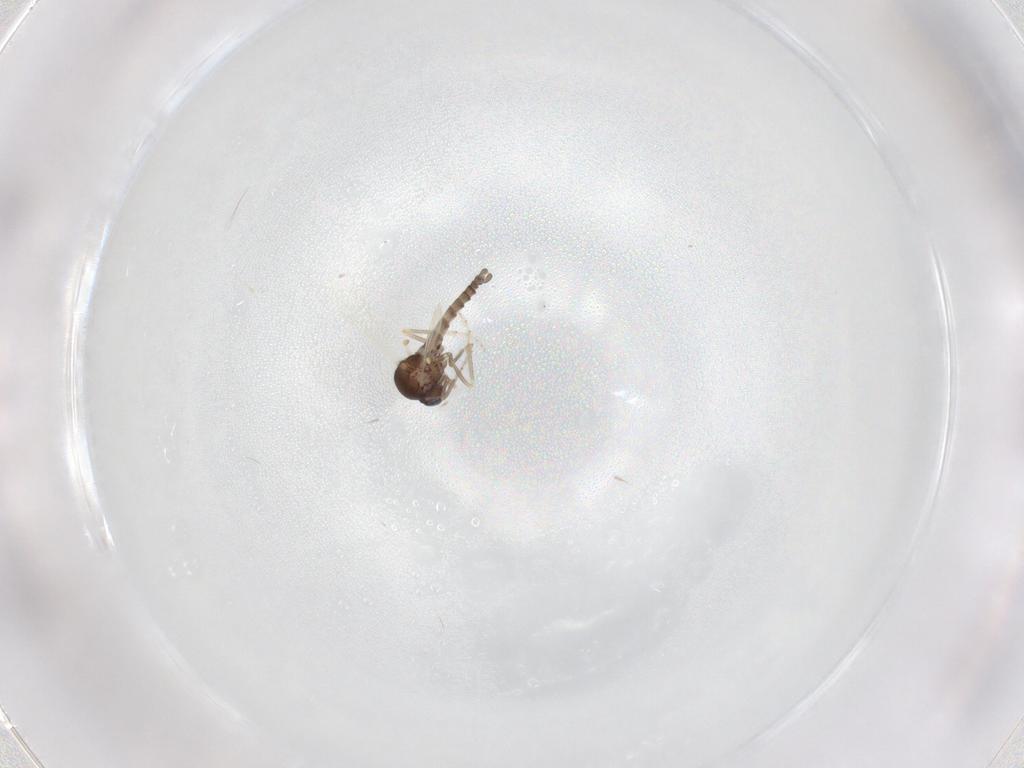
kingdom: Animalia
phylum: Arthropoda
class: Insecta
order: Diptera
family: Ceratopogonidae
